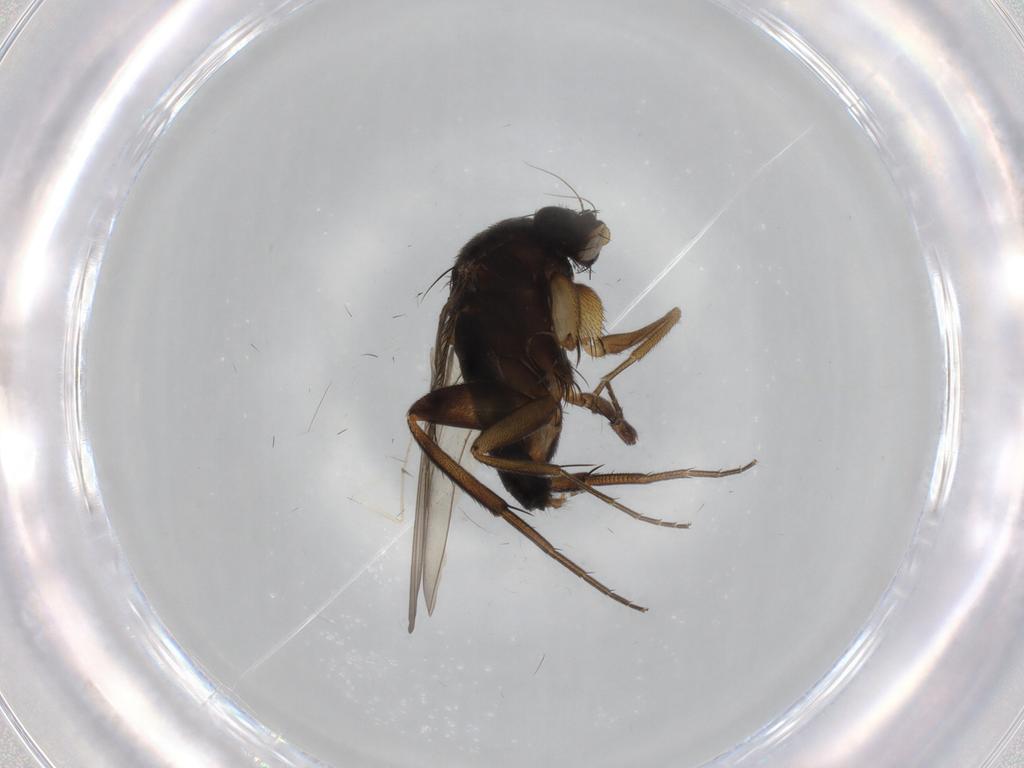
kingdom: Animalia
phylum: Arthropoda
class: Insecta
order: Diptera
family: Phoridae
